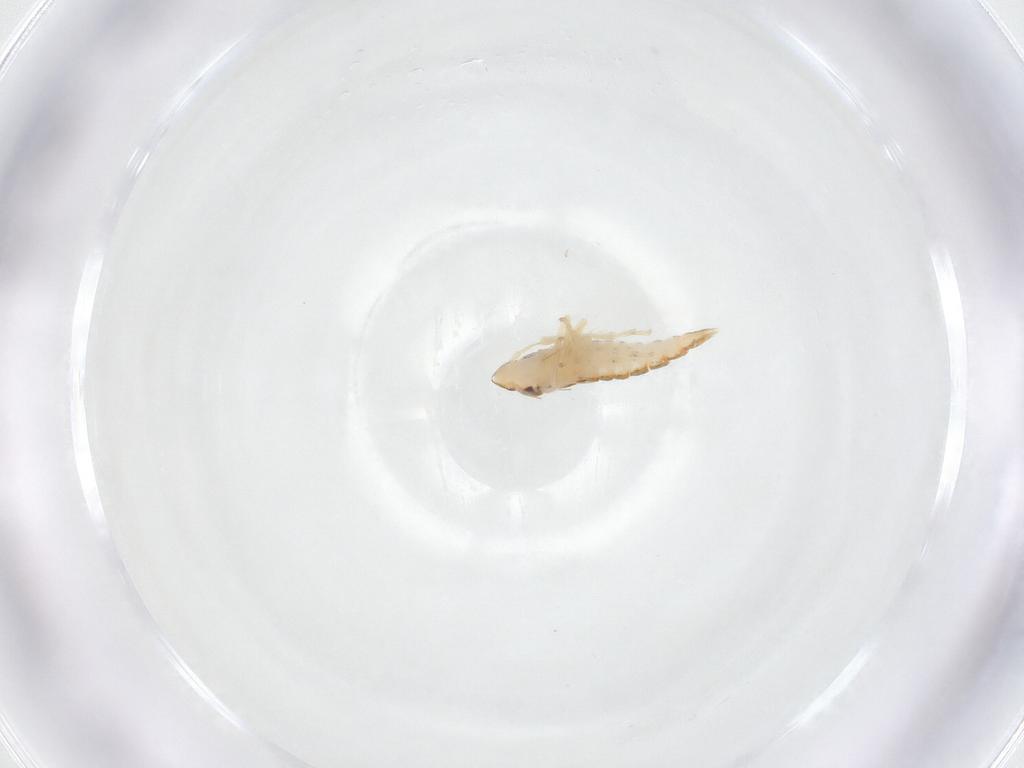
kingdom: Animalia
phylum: Arthropoda
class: Insecta
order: Hemiptera
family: Cicadellidae
